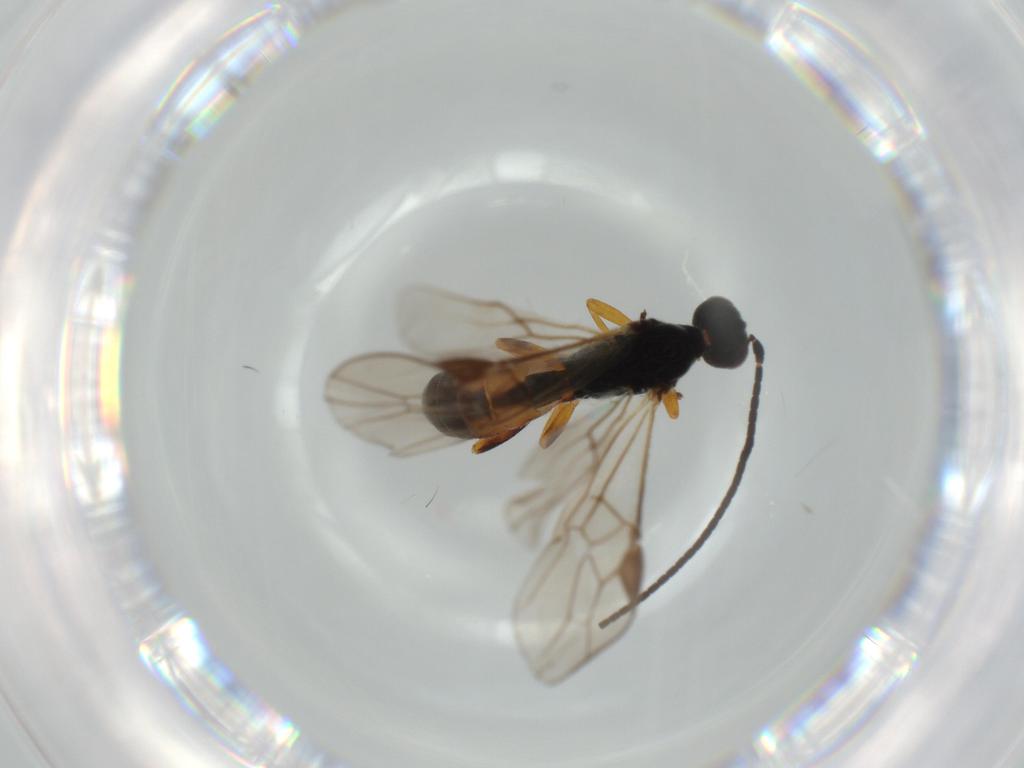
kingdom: Animalia
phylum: Arthropoda
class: Insecta
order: Hymenoptera
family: Braconidae
